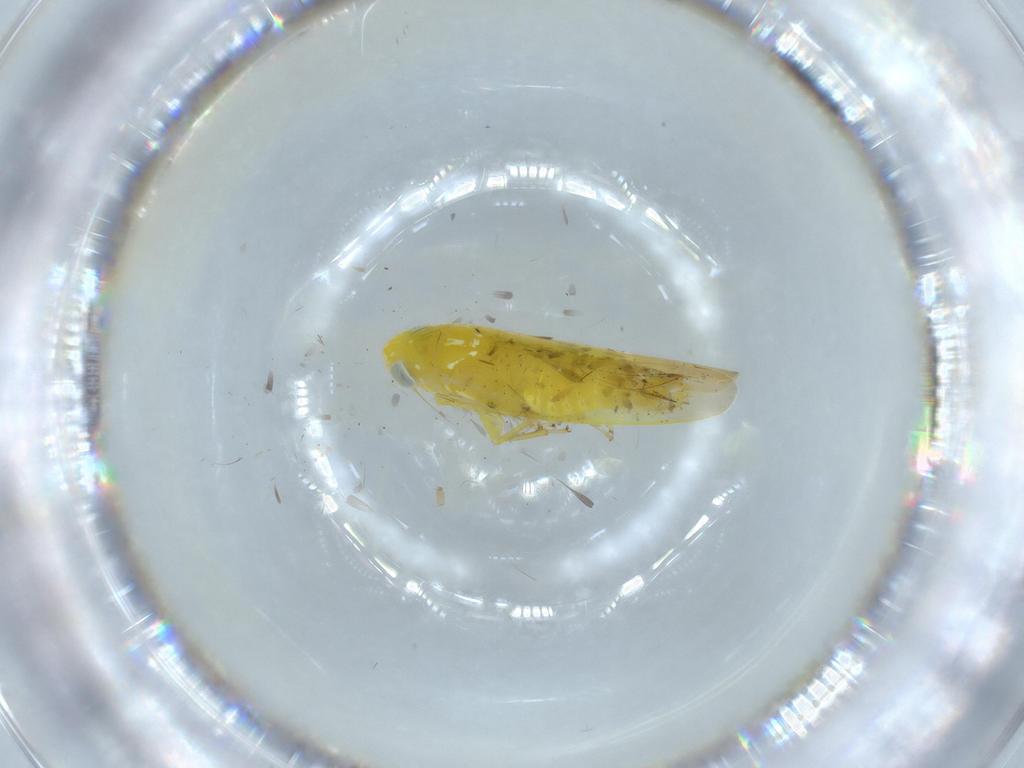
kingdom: Animalia
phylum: Arthropoda
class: Insecta
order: Hemiptera
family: Cicadellidae
